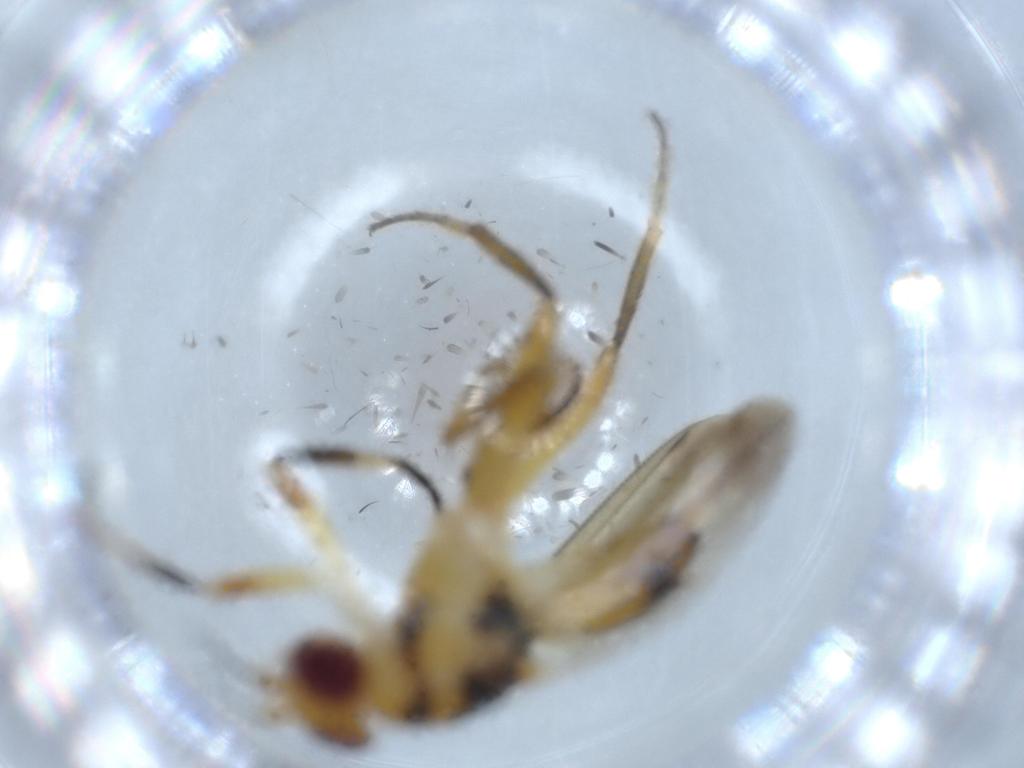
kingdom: Animalia
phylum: Arthropoda
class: Insecta
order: Diptera
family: Clusiidae
